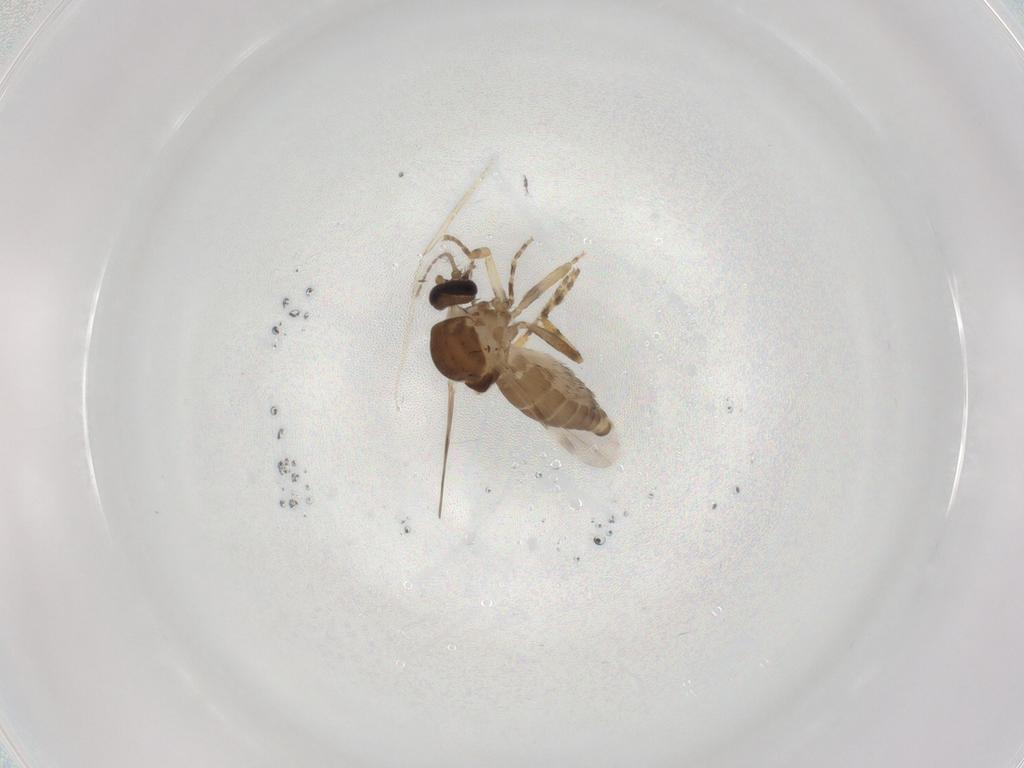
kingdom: Animalia
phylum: Arthropoda
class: Insecta
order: Diptera
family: Ceratopogonidae
